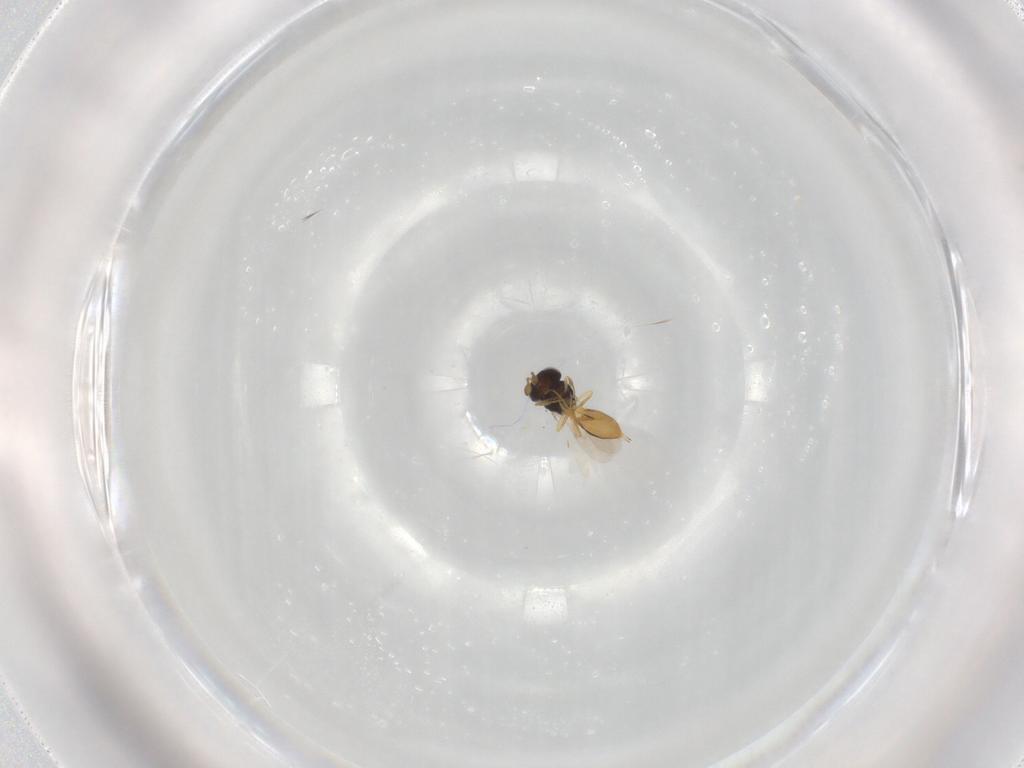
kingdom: Animalia
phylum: Arthropoda
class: Insecta
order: Hymenoptera
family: Scelionidae
